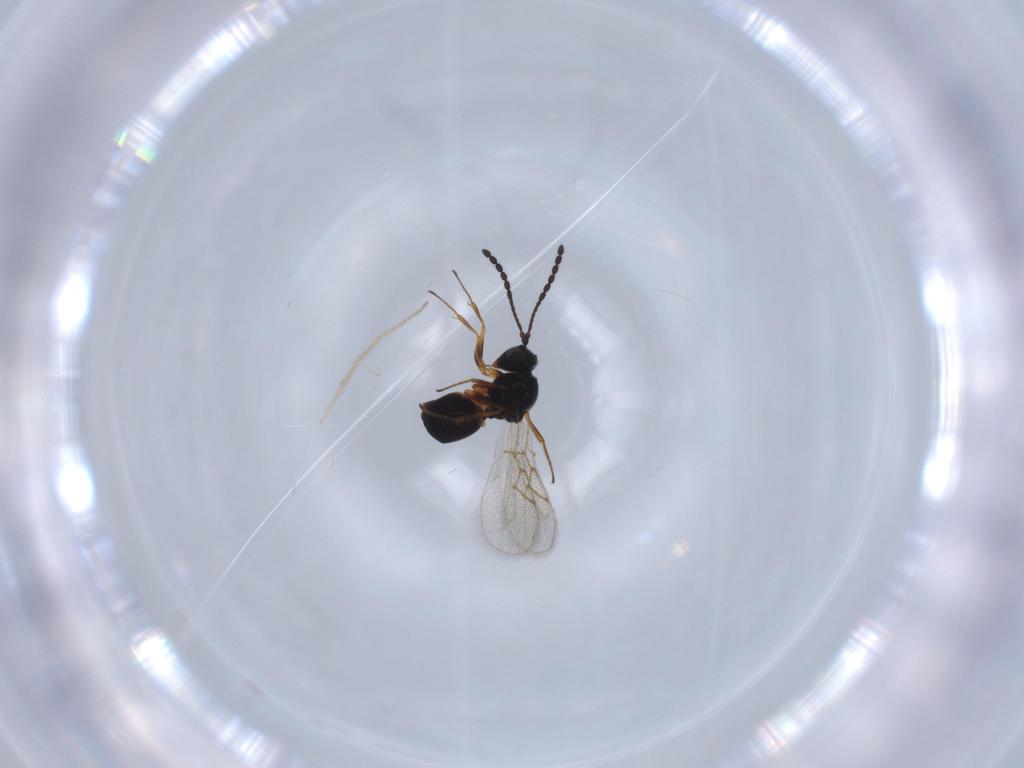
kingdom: Animalia
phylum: Arthropoda
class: Insecta
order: Hymenoptera
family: Figitidae
